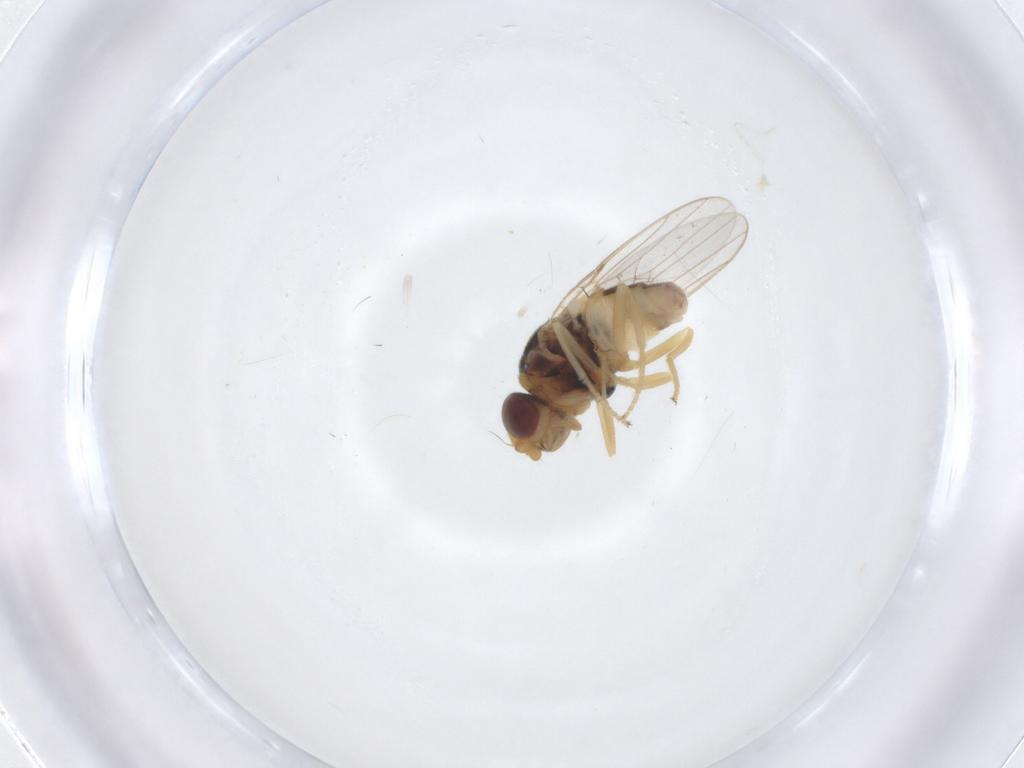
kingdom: Animalia
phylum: Arthropoda
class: Insecta
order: Diptera
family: Chloropidae
